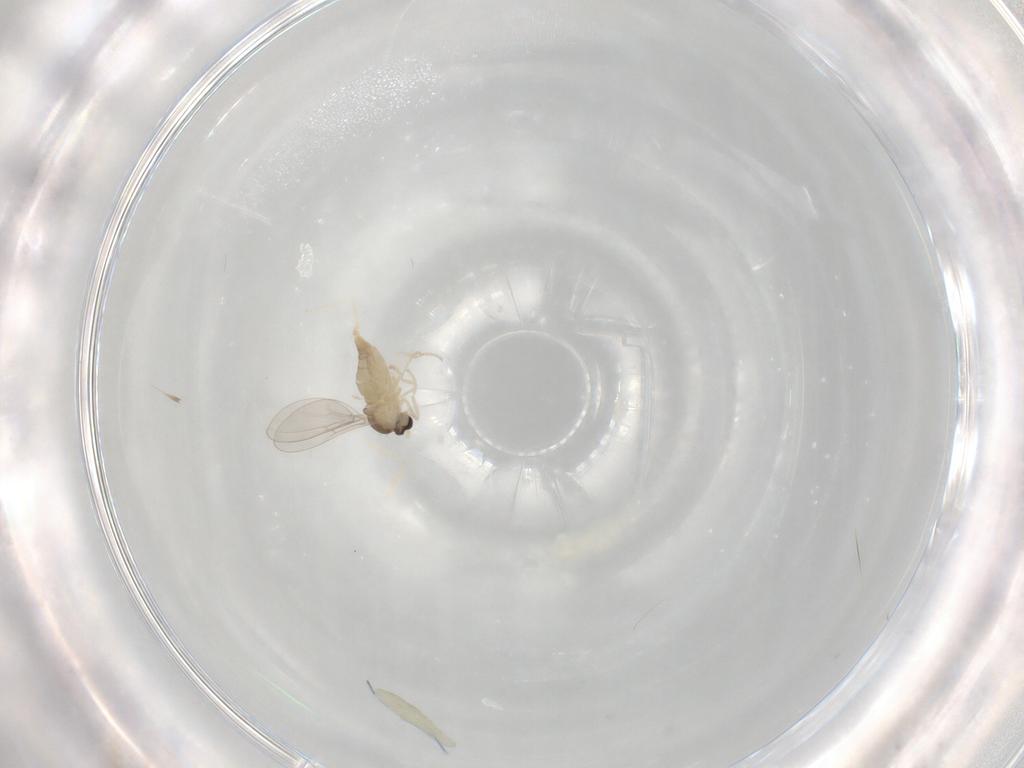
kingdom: Animalia
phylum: Arthropoda
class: Insecta
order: Diptera
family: Cecidomyiidae
